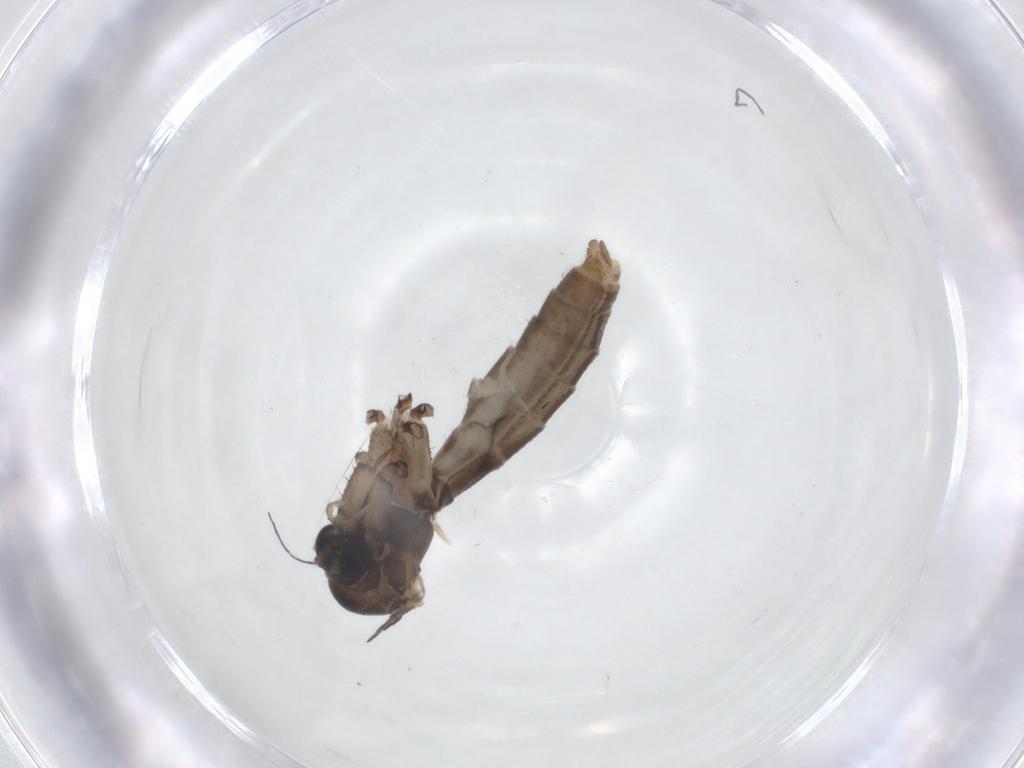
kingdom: Animalia
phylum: Arthropoda
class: Insecta
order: Diptera
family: Mycetophilidae
